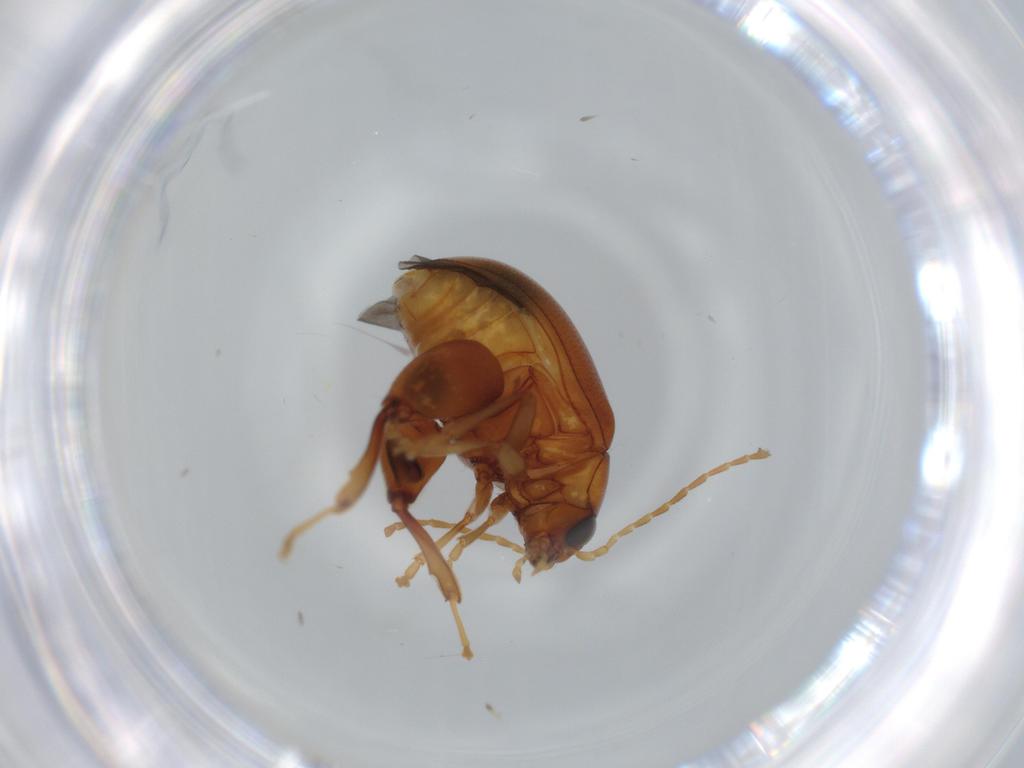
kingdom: Animalia
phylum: Arthropoda
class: Insecta
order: Coleoptera
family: Chrysomelidae
